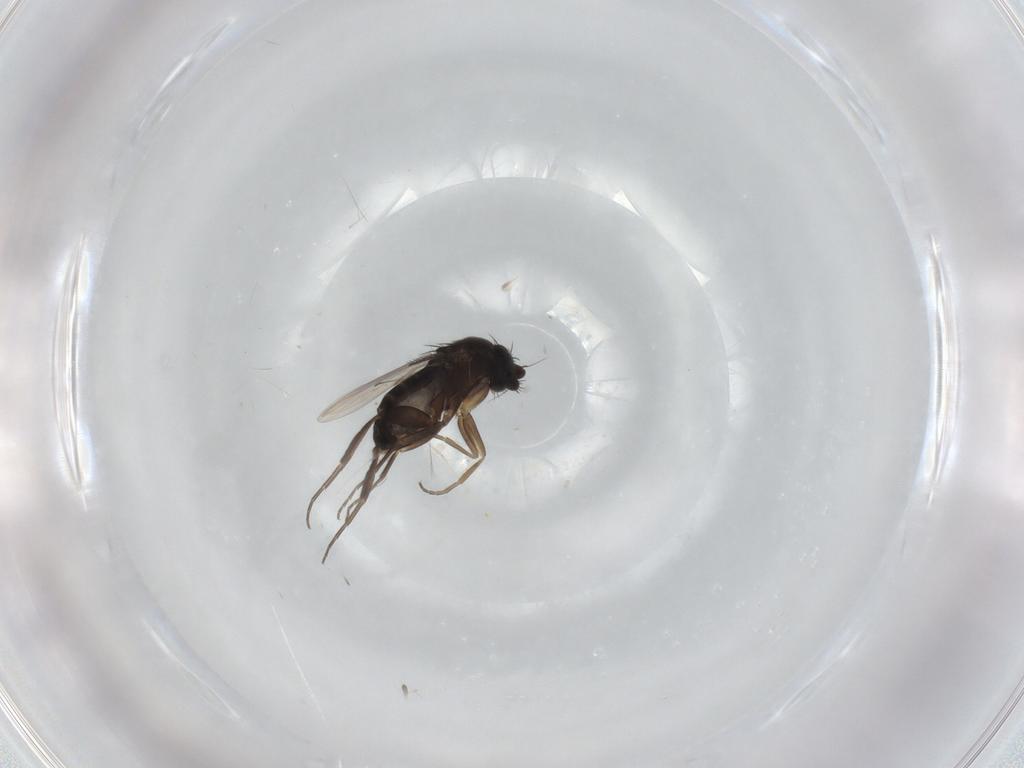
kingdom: Animalia
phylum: Arthropoda
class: Insecta
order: Diptera
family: Phoridae
